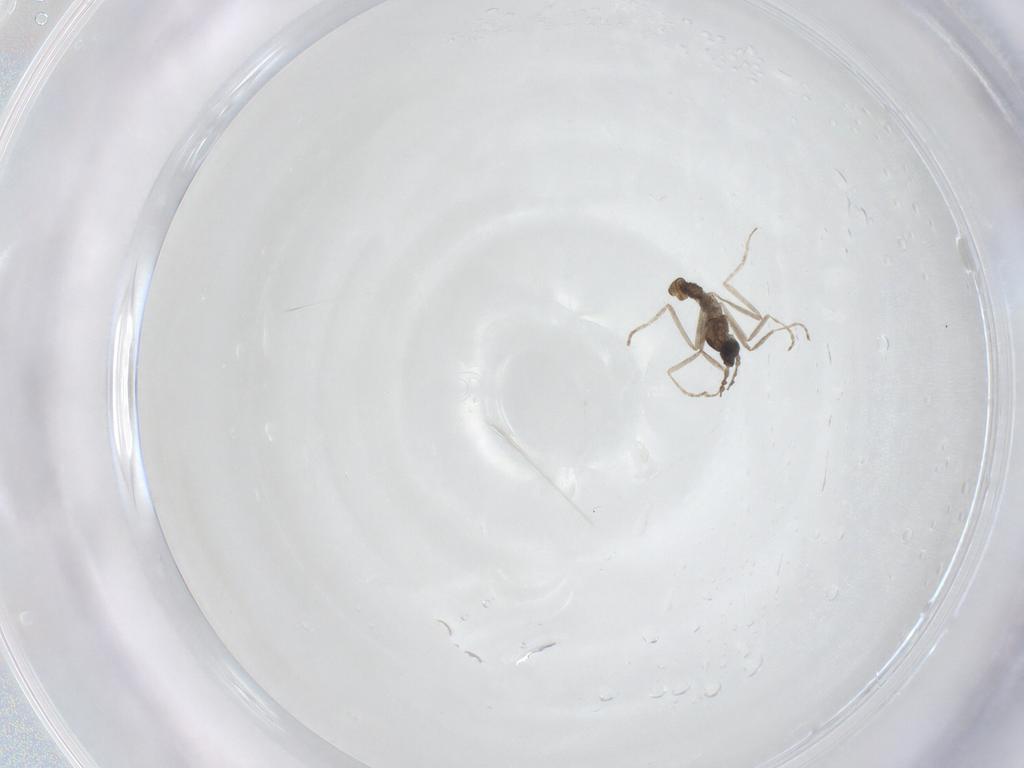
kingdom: Animalia
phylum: Arthropoda
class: Insecta
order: Diptera
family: Cecidomyiidae
